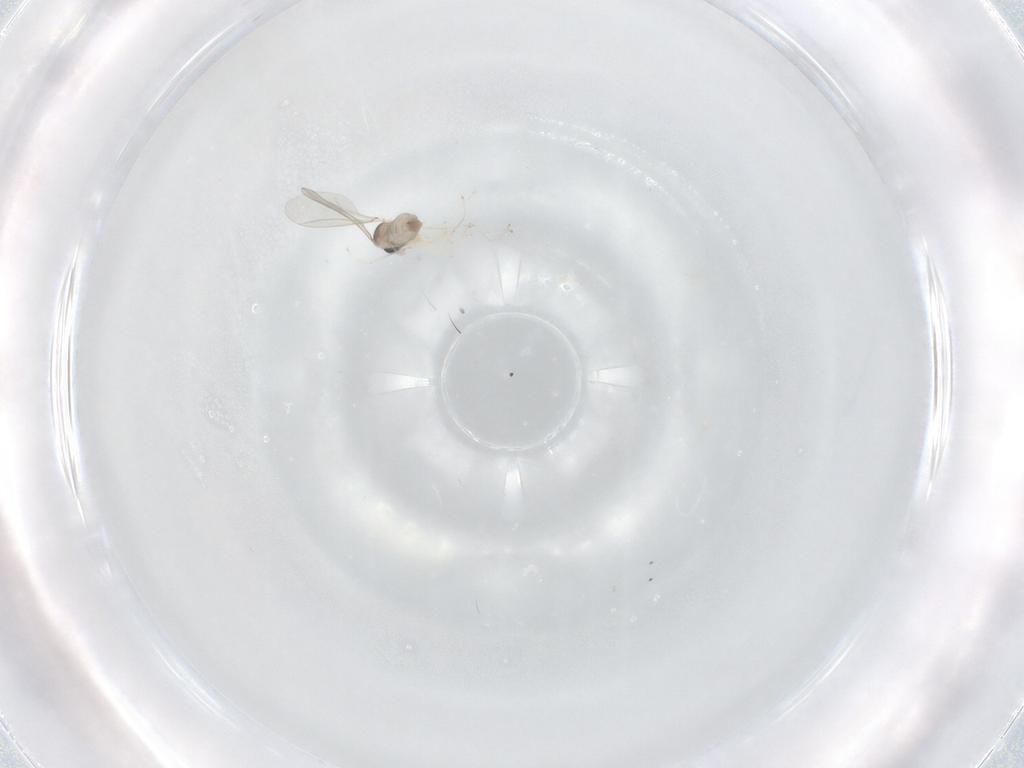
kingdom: Animalia
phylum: Arthropoda
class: Insecta
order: Diptera
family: Cecidomyiidae
